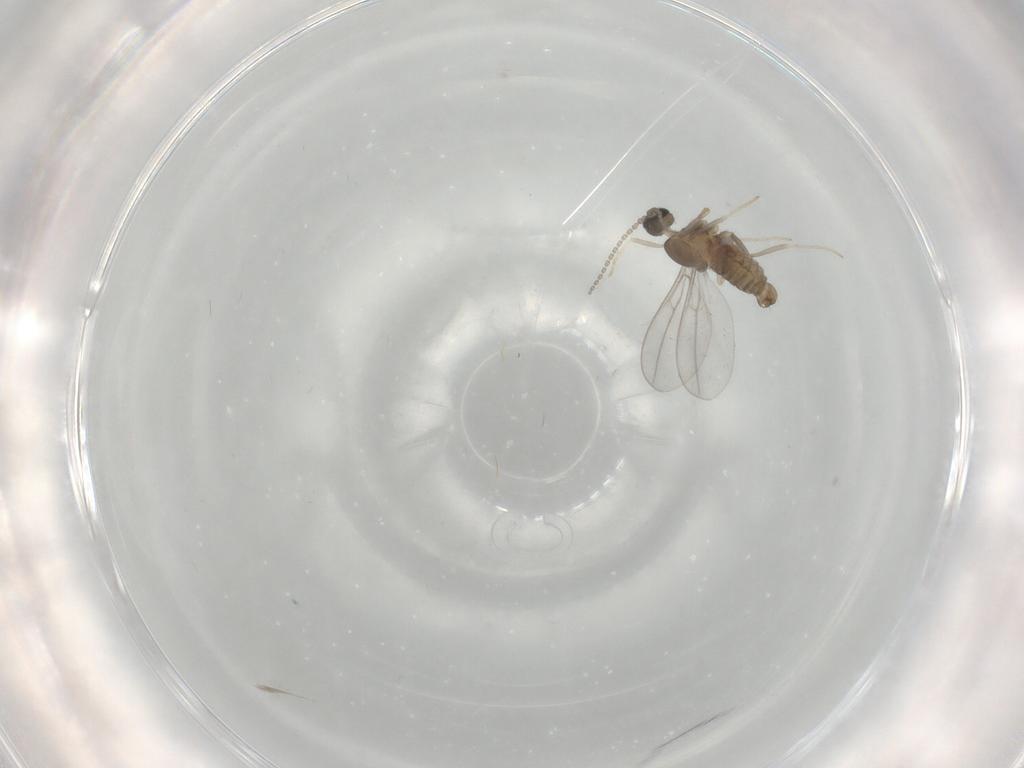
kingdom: Animalia
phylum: Arthropoda
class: Insecta
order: Diptera
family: Cecidomyiidae
